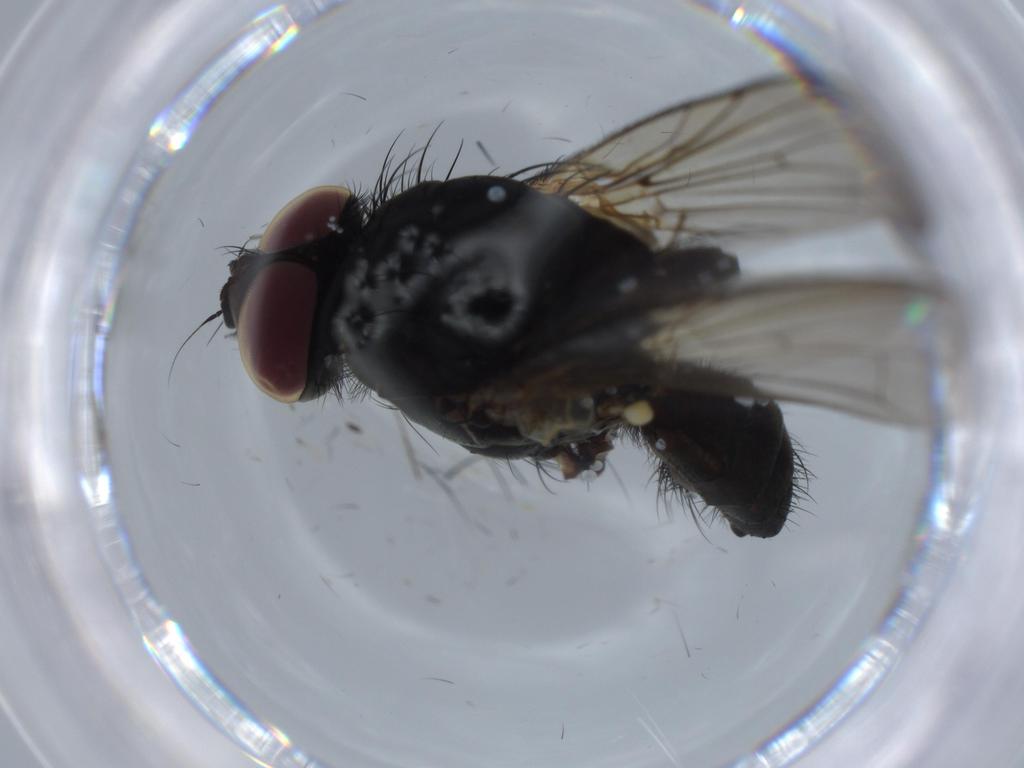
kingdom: Animalia
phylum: Arthropoda
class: Insecta
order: Diptera
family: Sciaridae
